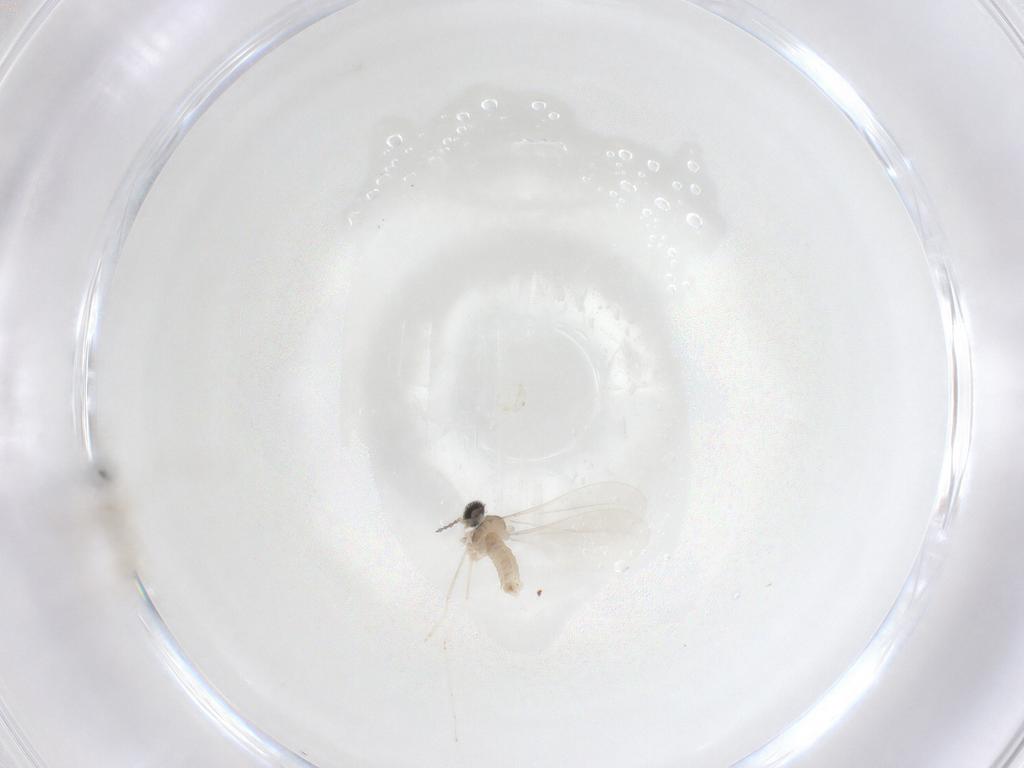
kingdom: Animalia
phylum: Arthropoda
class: Insecta
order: Diptera
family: Cecidomyiidae
